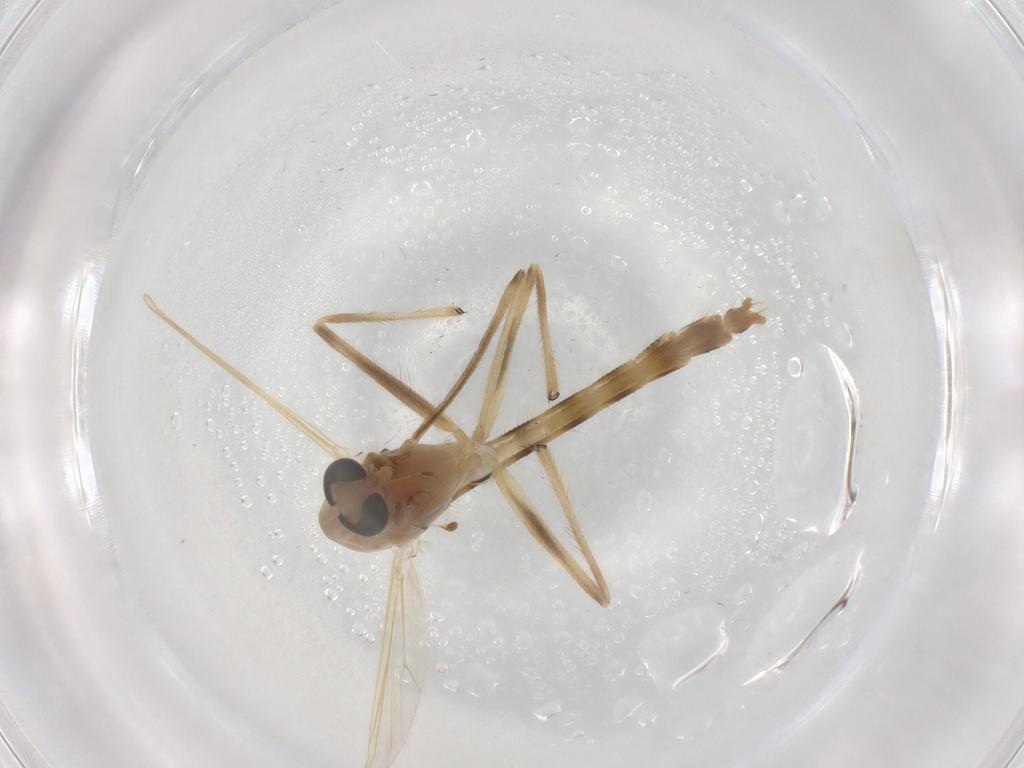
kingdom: Animalia
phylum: Arthropoda
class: Insecta
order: Diptera
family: Chironomidae
